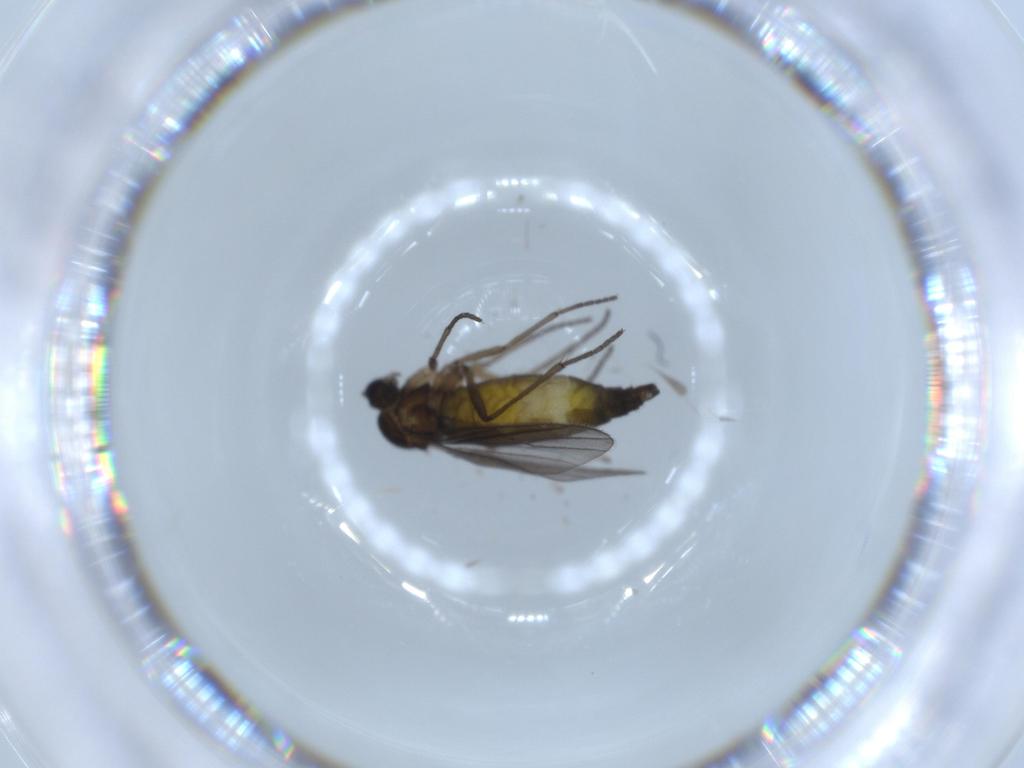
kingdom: Animalia
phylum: Arthropoda
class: Insecta
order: Diptera
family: Sciaridae
